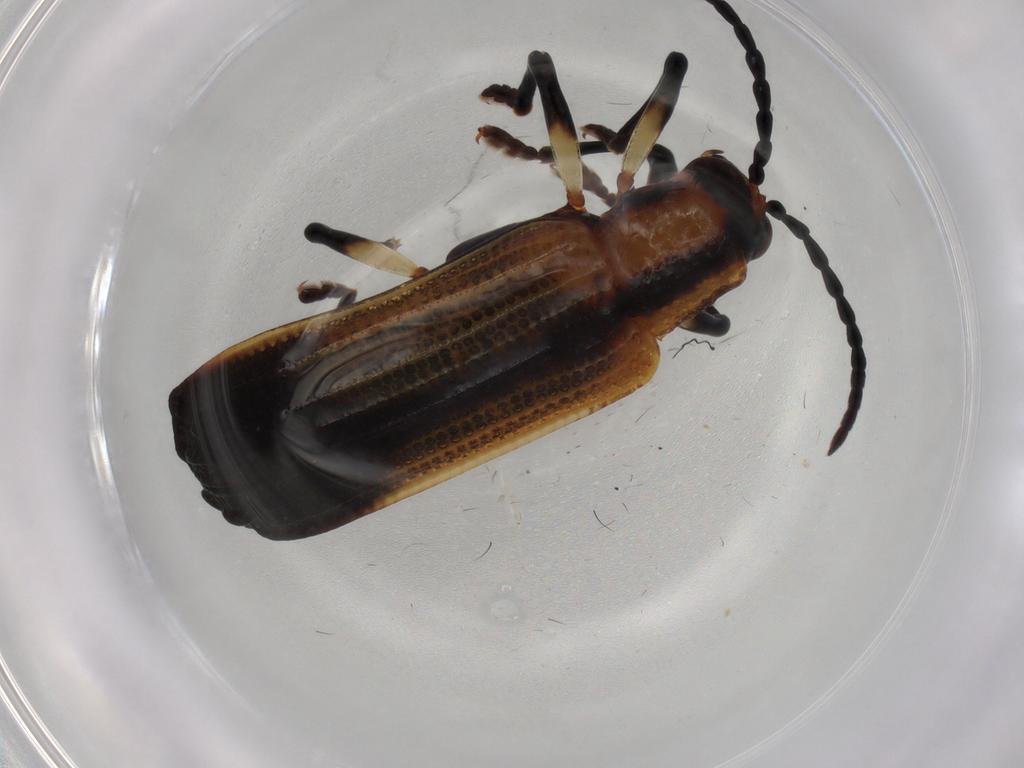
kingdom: Animalia
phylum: Arthropoda
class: Insecta
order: Coleoptera
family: Chrysomelidae
